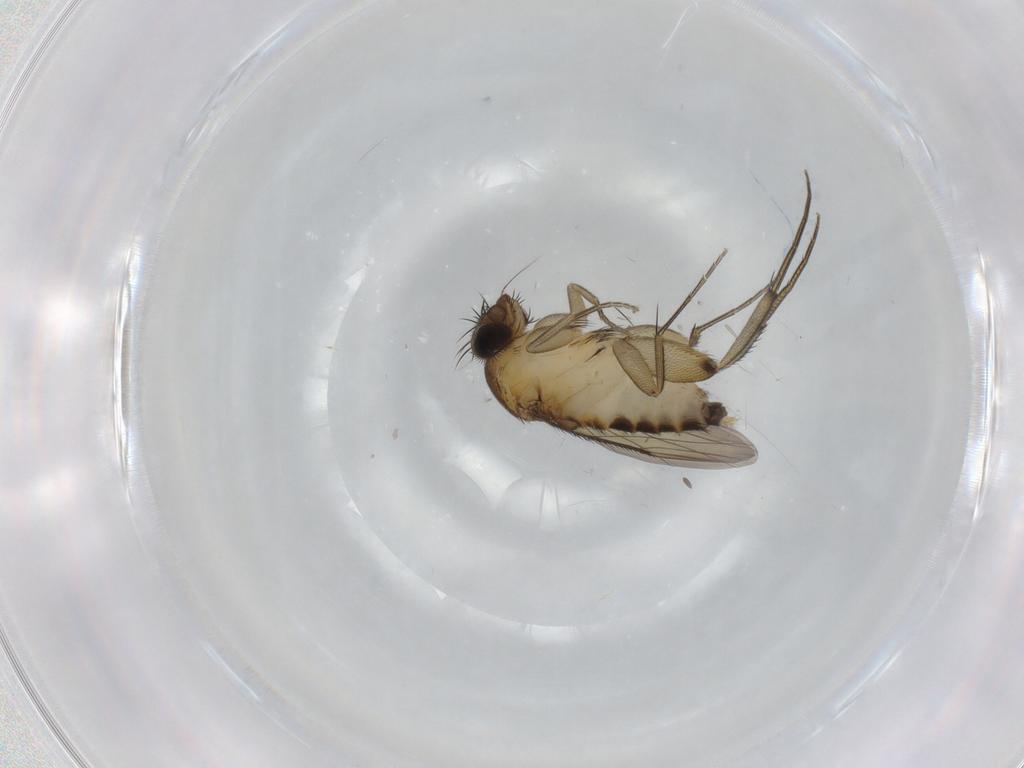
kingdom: Animalia
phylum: Arthropoda
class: Insecta
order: Diptera
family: Phoridae
